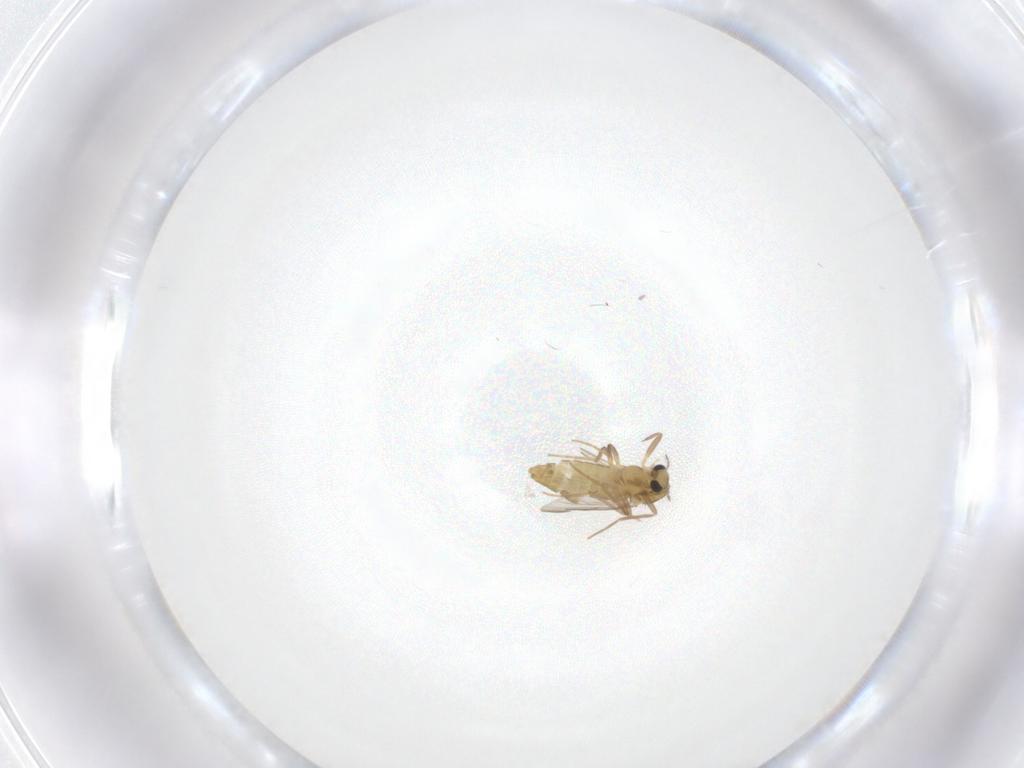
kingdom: Animalia
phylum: Arthropoda
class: Insecta
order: Diptera
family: Chironomidae
